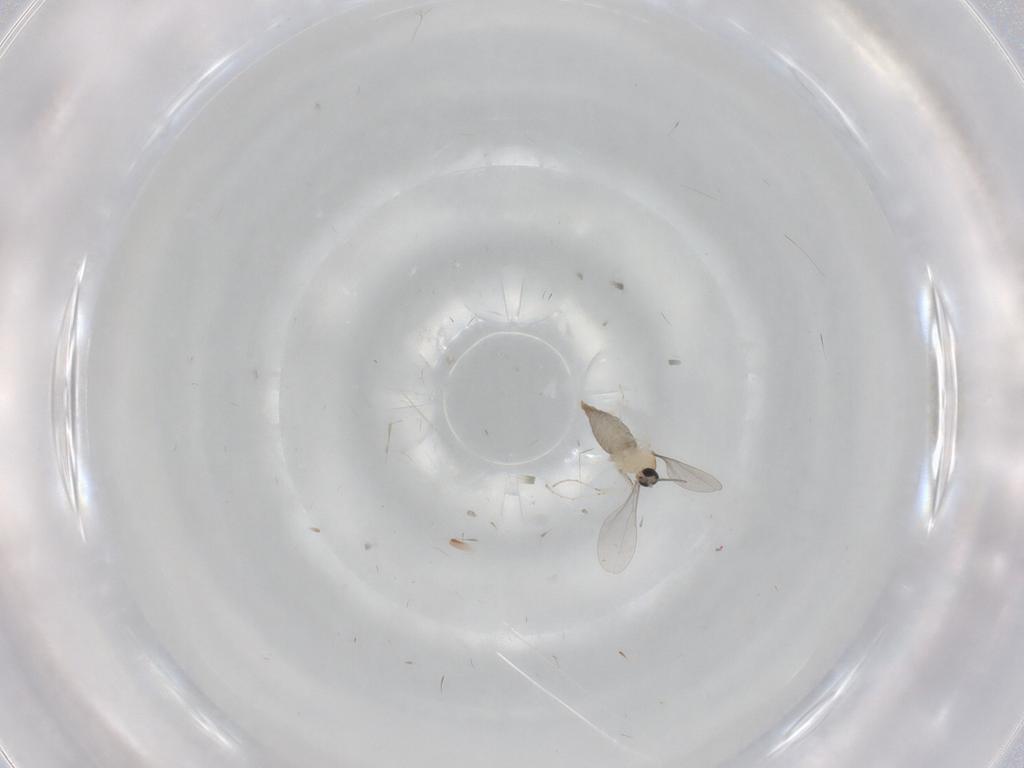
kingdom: Animalia
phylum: Arthropoda
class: Insecta
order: Diptera
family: Cecidomyiidae
